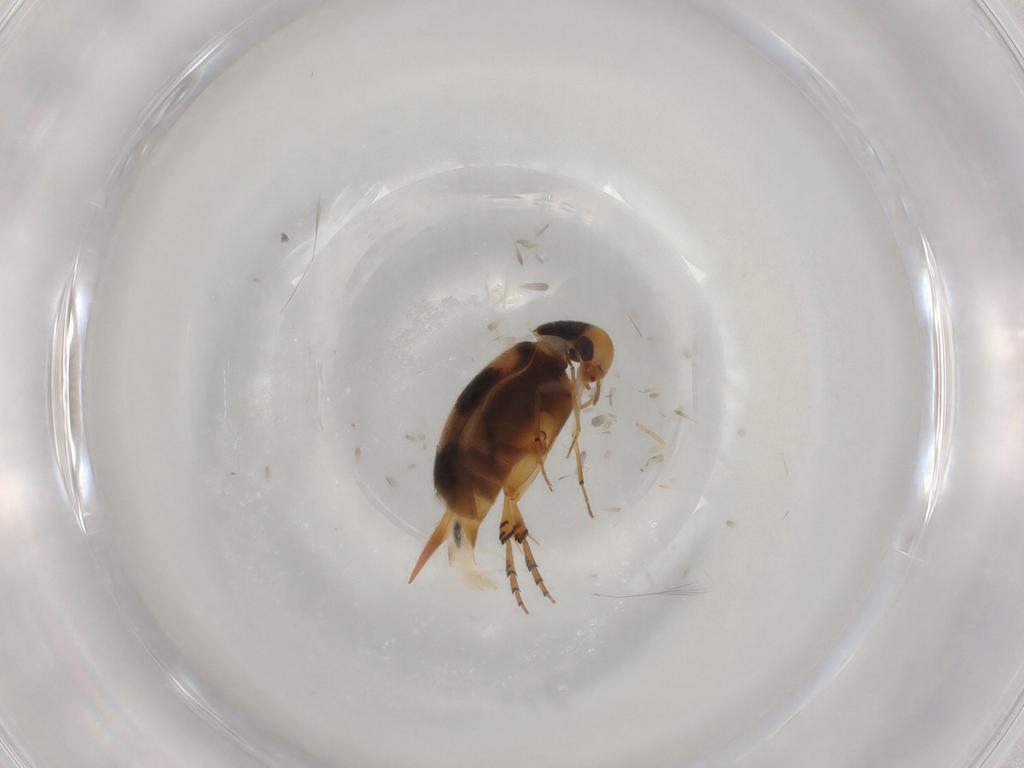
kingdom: Animalia
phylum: Arthropoda
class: Insecta
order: Coleoptera
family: Mordellidae
